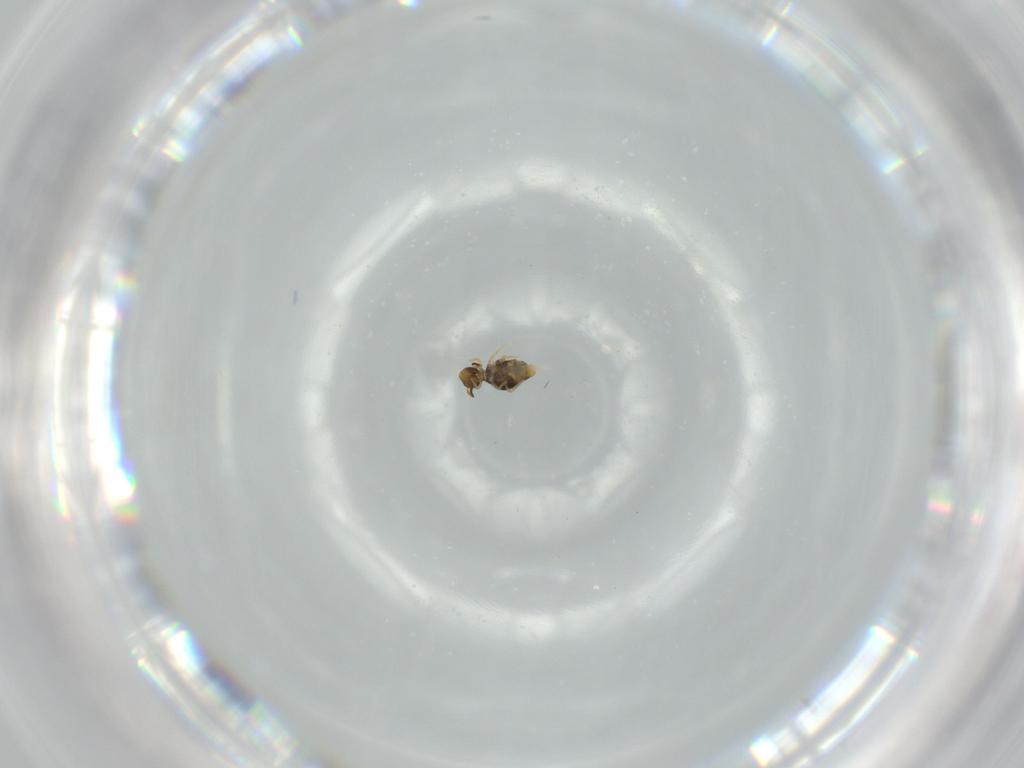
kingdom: Animalia
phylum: Arthropoda
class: Collembola
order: Symphypleona
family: Katiannidae
